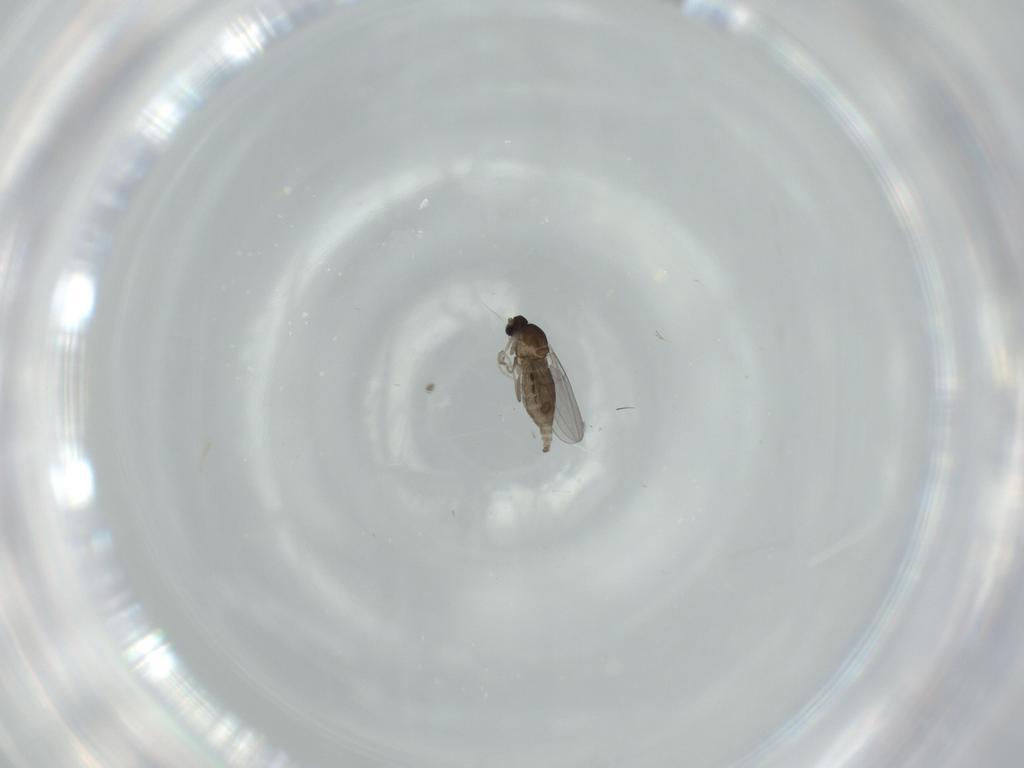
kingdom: Animalia
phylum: Arthropoda
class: Insecta
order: Diptera
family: Cecidomyiidae
